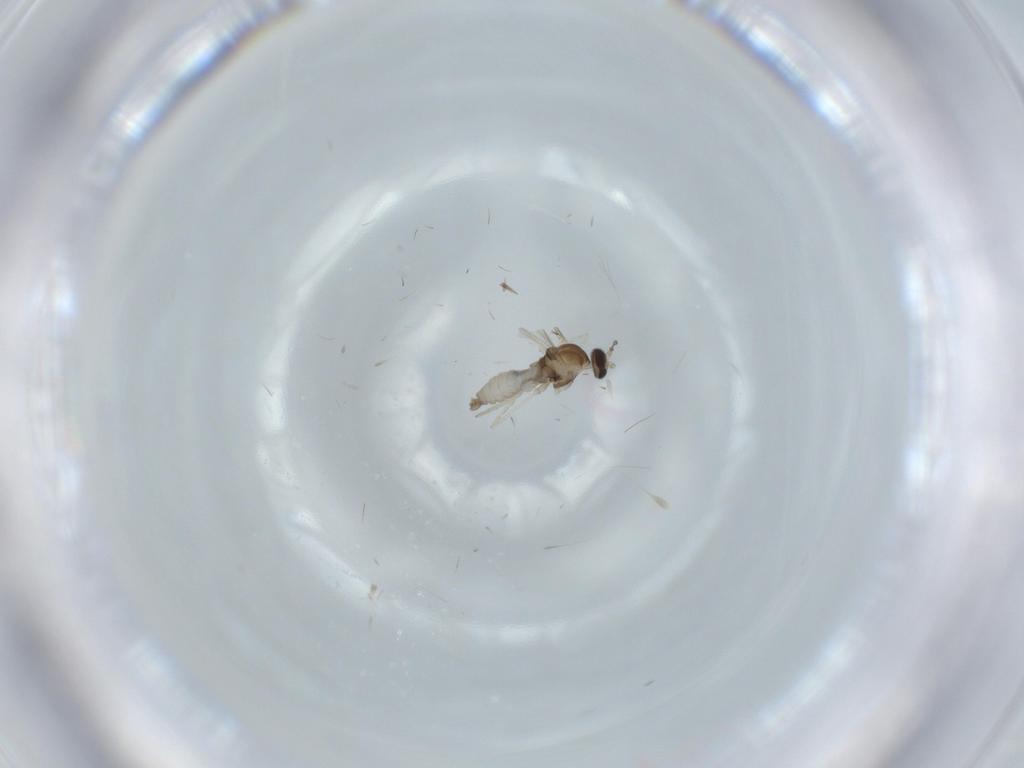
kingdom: Animalia
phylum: Arthropoda
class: Insecta
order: Diptera
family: Cecidomyiidae
